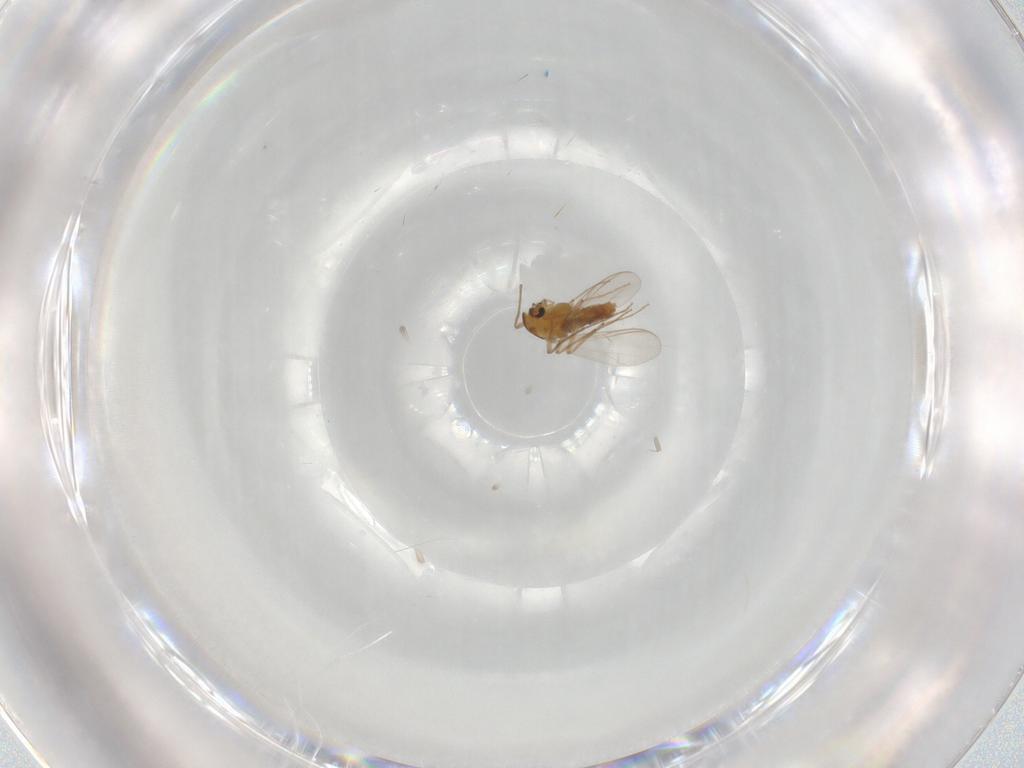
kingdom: Animalia
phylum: Arthropoda
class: Insecta
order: Diptera
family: Chironomidae
